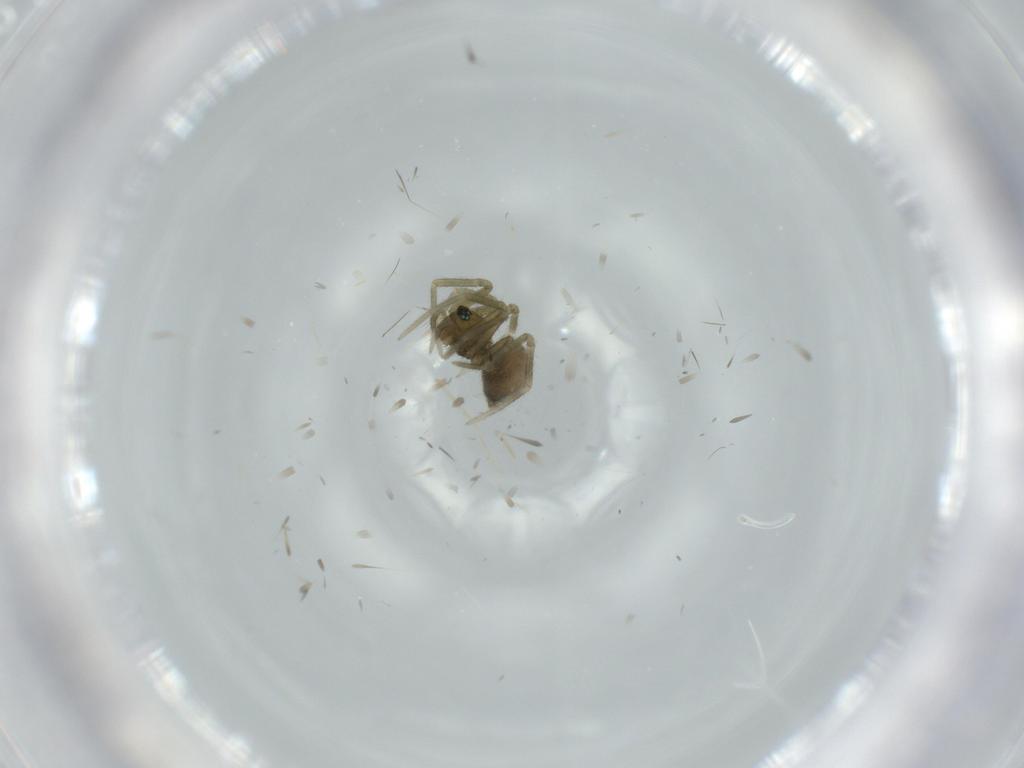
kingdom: Animalia
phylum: Arthropoda
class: Arachnida
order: Araneae
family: Linyphiidae
